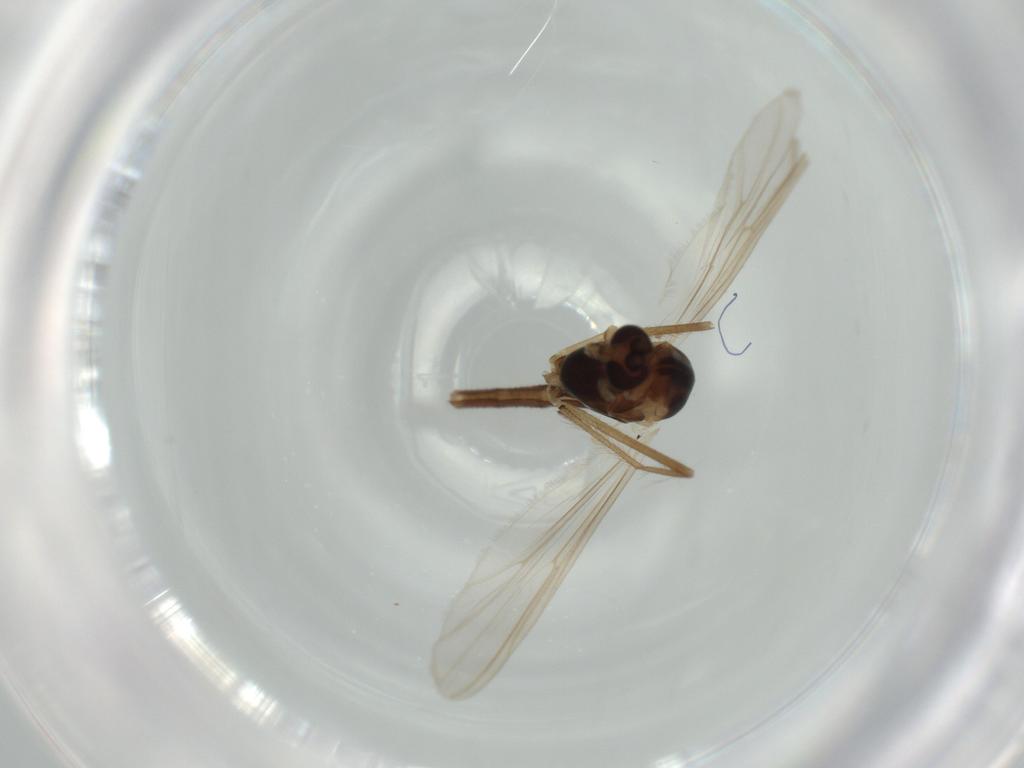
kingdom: Animalia
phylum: Arthropoda
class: Insecta
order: Diptera
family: Chironomidae
